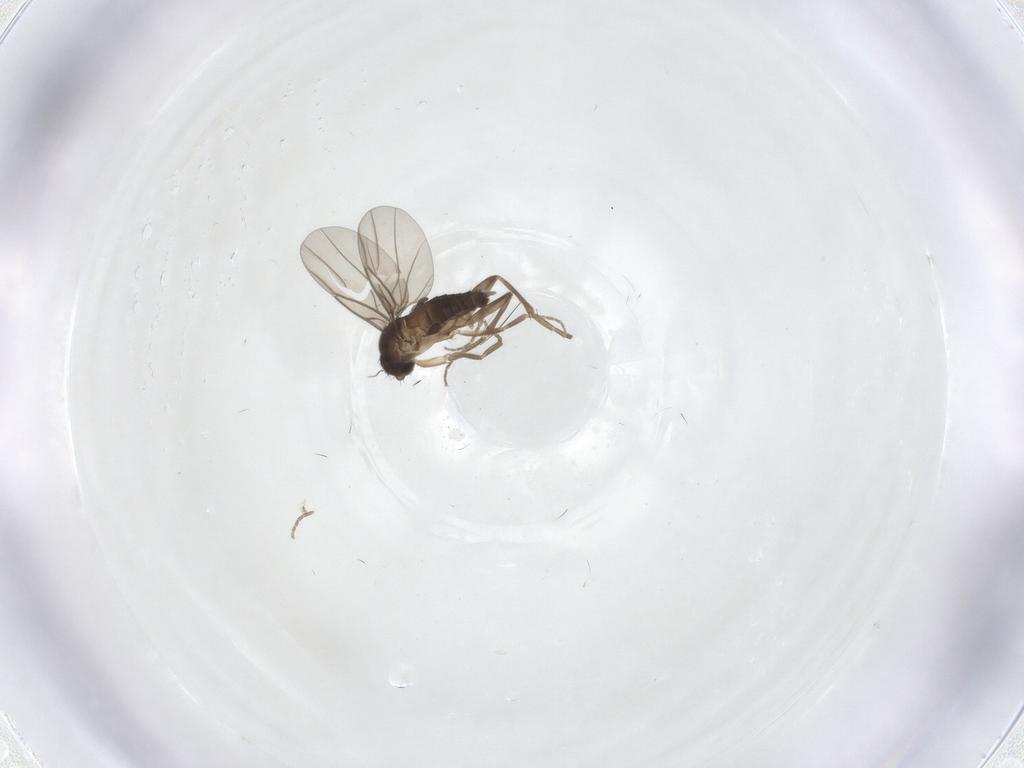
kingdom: Animalia
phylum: Arthropoda
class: Insecta
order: Diptera
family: Phoridae
